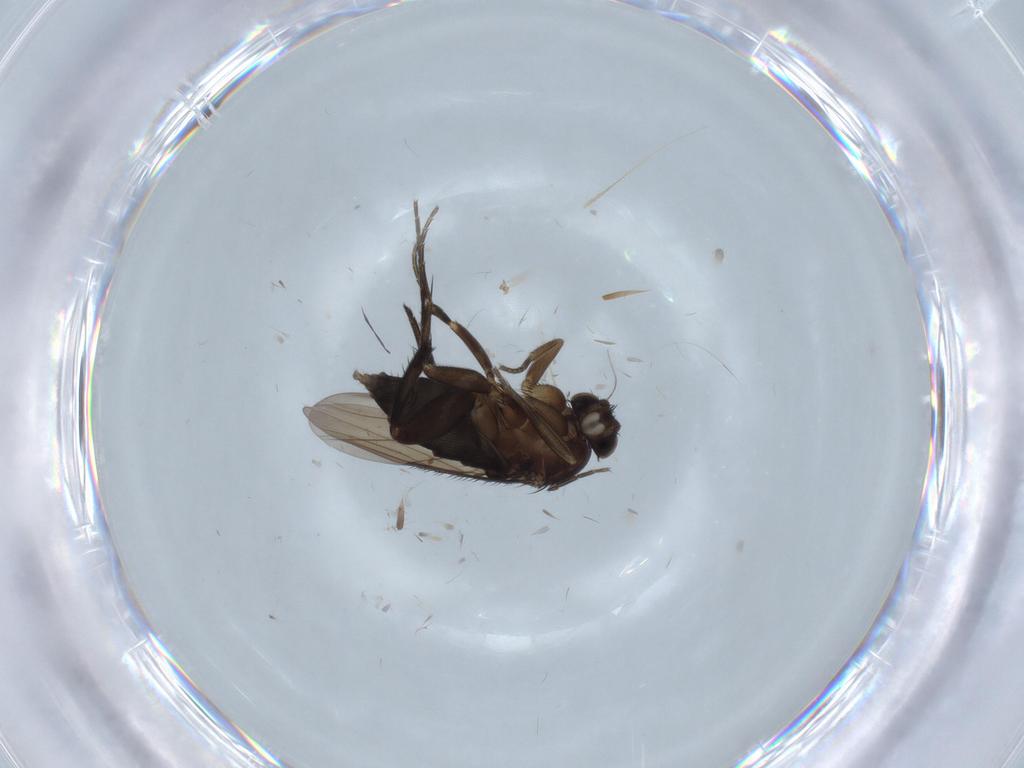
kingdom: Animalia
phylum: Arthropoda
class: Insecta
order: Diptera
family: Phoridae
